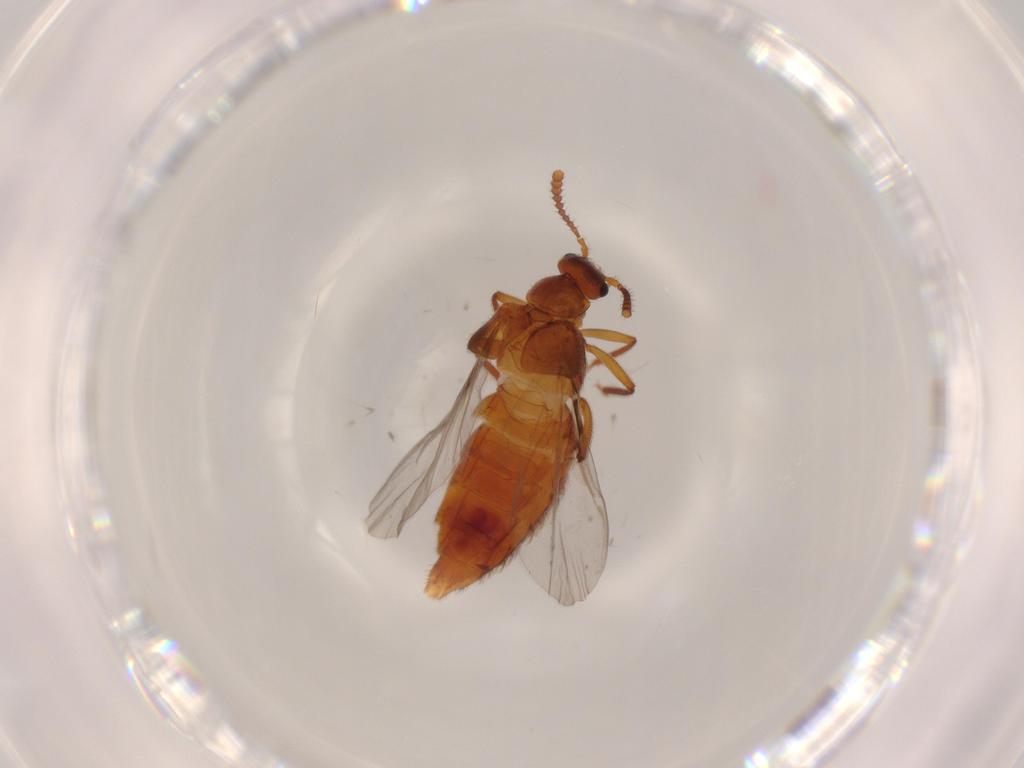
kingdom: Animalia
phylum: Arthropoda
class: Insecta
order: Coleoptera
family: Staphylinidae
